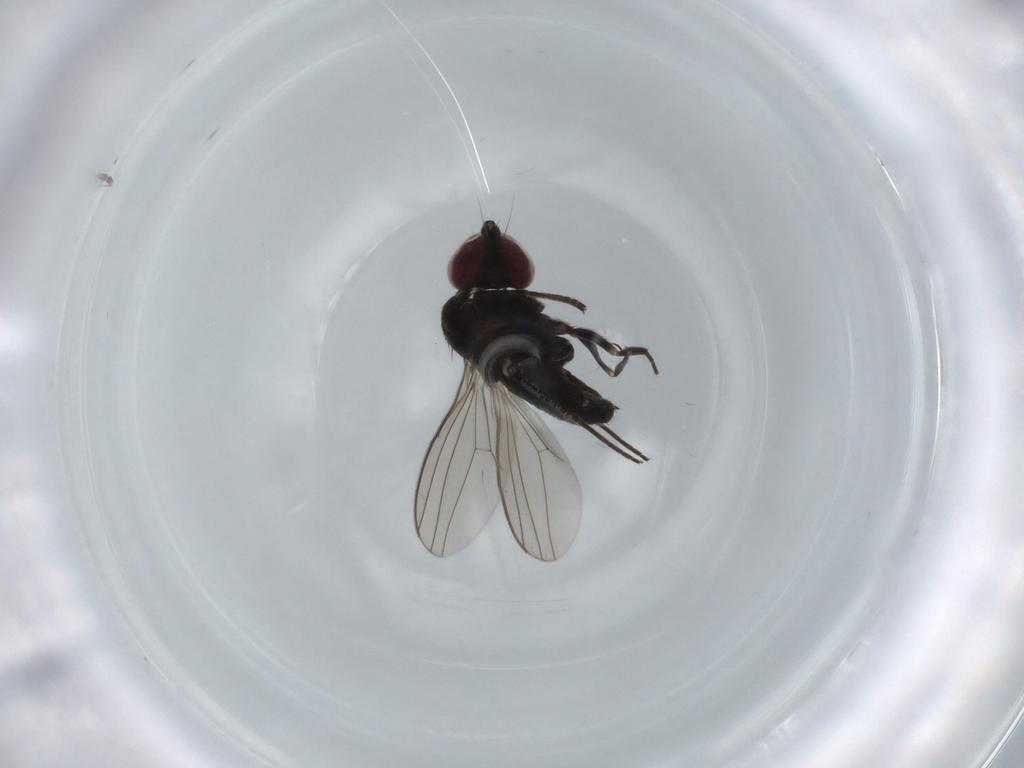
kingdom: Animalia
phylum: Arthropoda
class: Insecta
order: Diptera
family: Dolichopodidae
